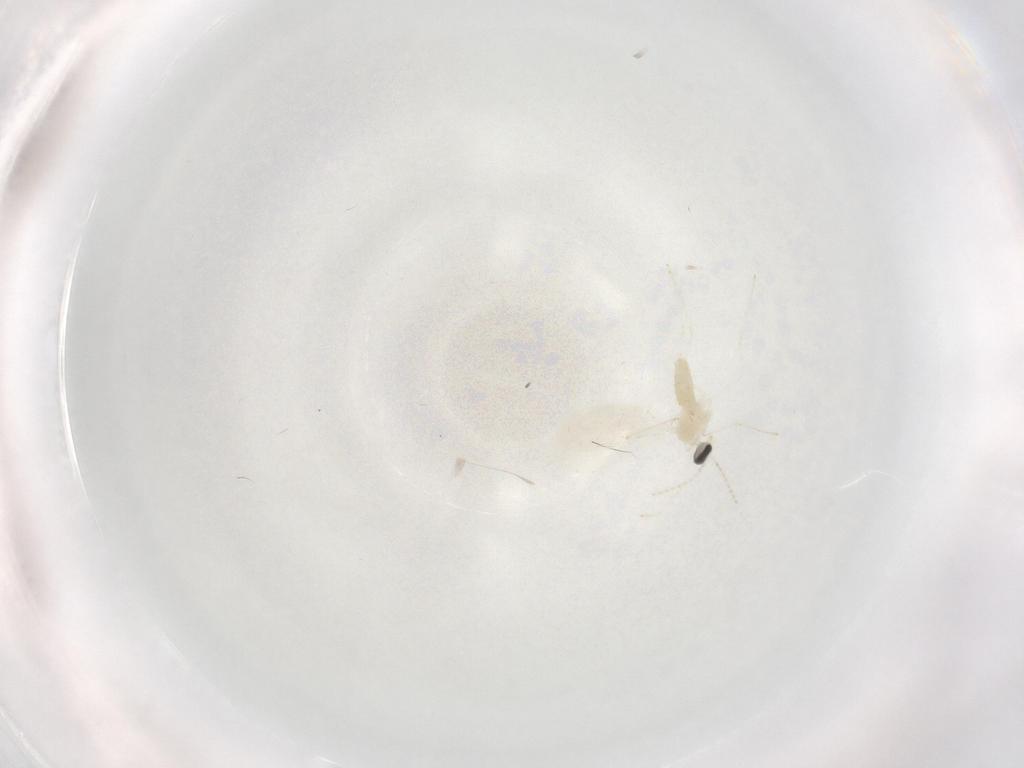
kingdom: Animalia
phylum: Arthropoda
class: Insecta
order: Diptera
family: Cecidomyiidae
